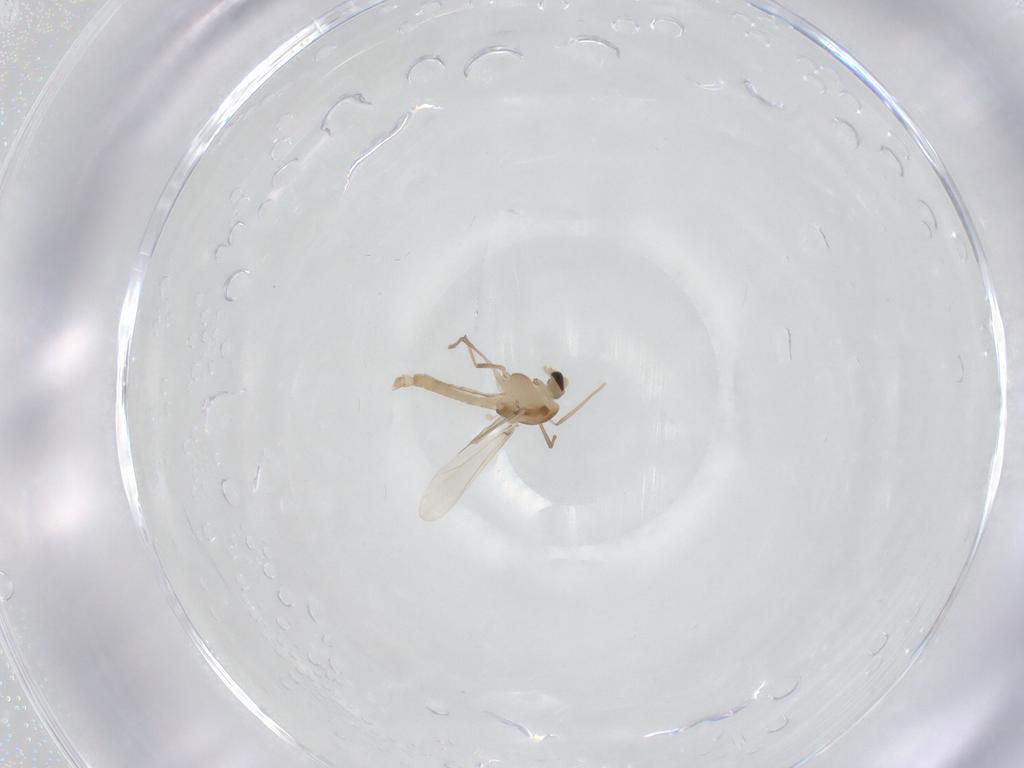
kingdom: Animalia
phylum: Arthropoda
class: Insecta
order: Diptera
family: Chironomidae
